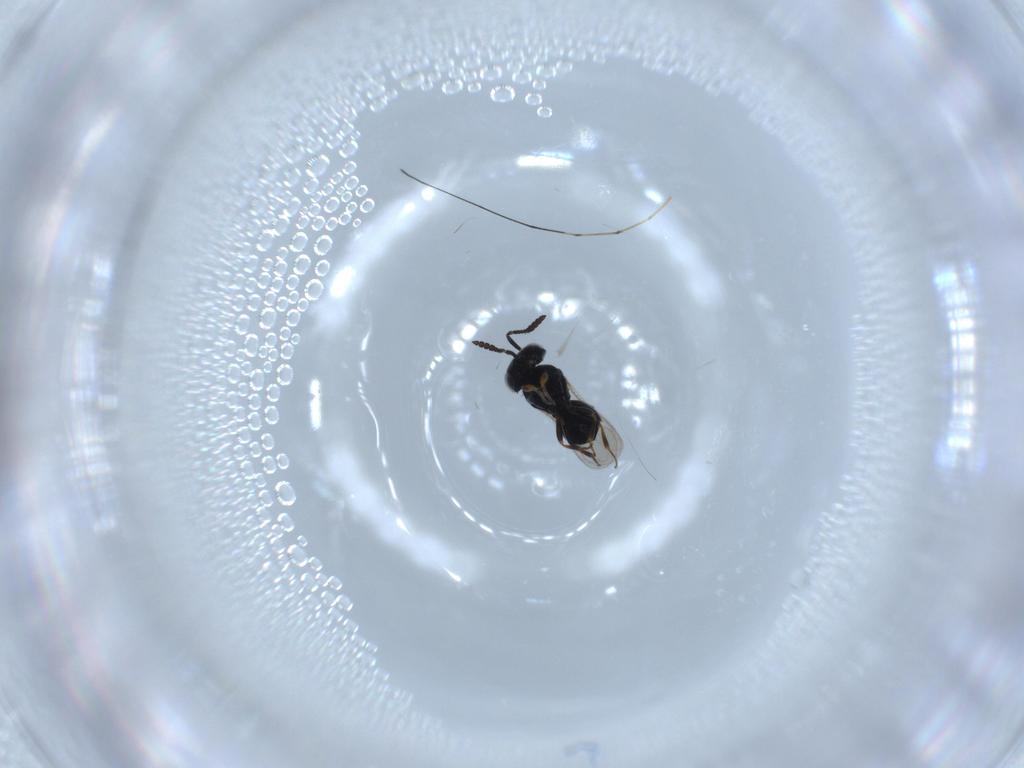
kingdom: Animalia
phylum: Arthropoda
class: Insecta
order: Hymenoptera
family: Scelionidae
